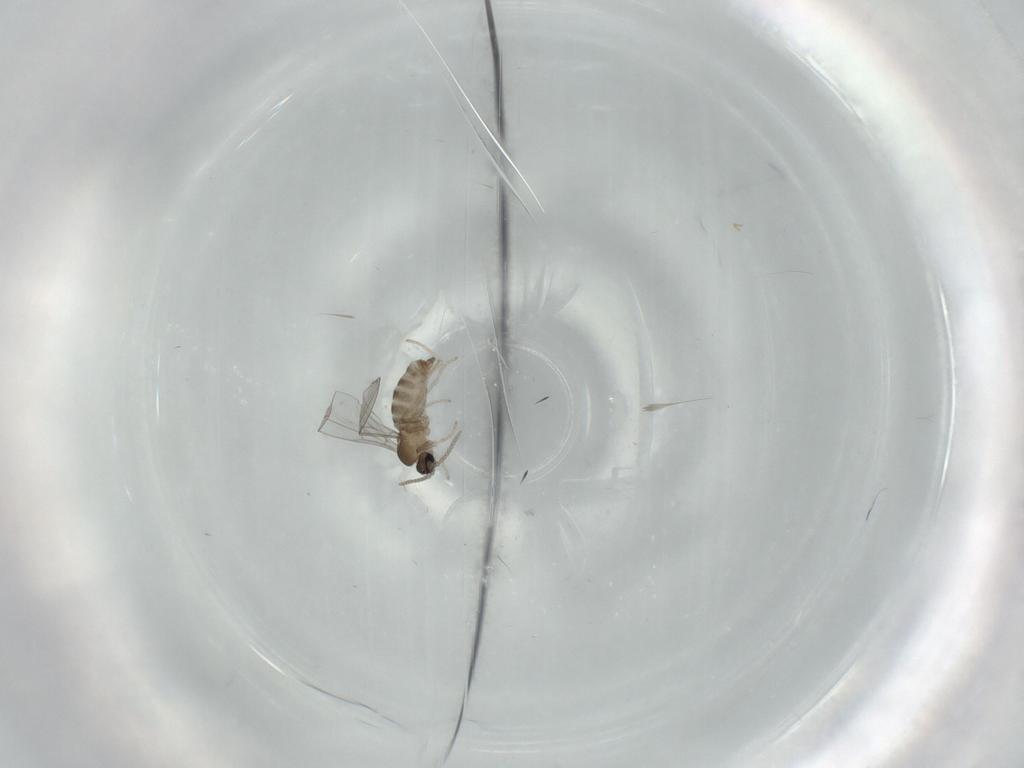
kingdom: Animalia
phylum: Arthropoda
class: Insecta
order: Diptera
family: Cecidomyiidae
